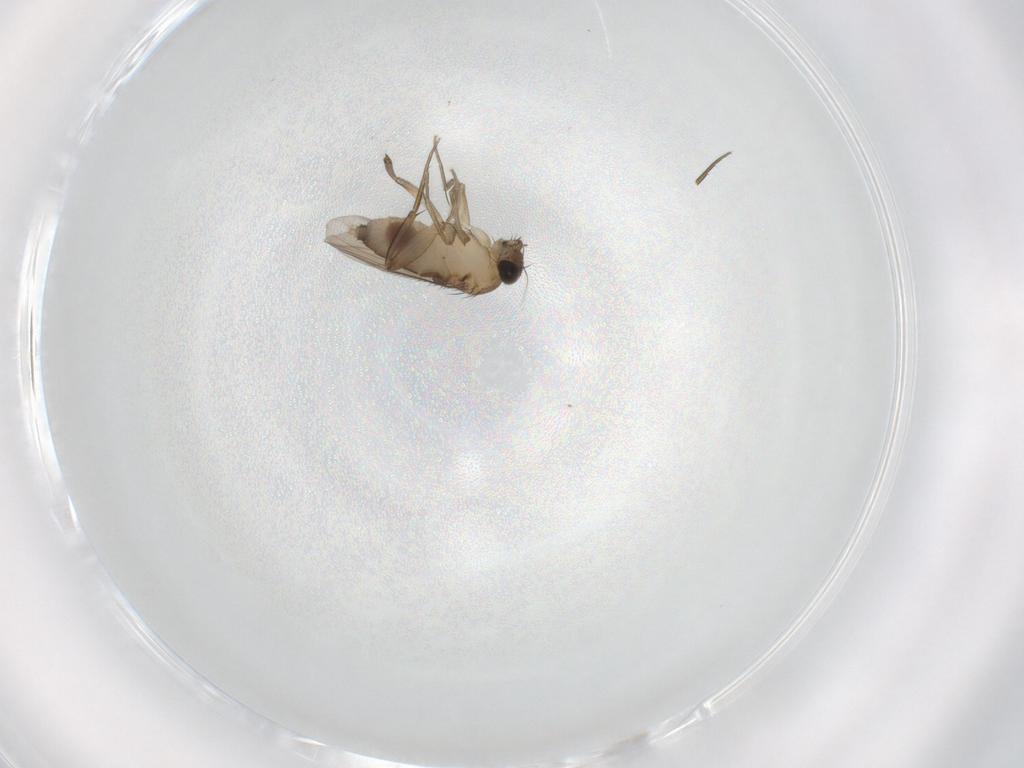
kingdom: Animalia
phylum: Arthropoda
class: Insecta
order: Diptera
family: Phoridae
